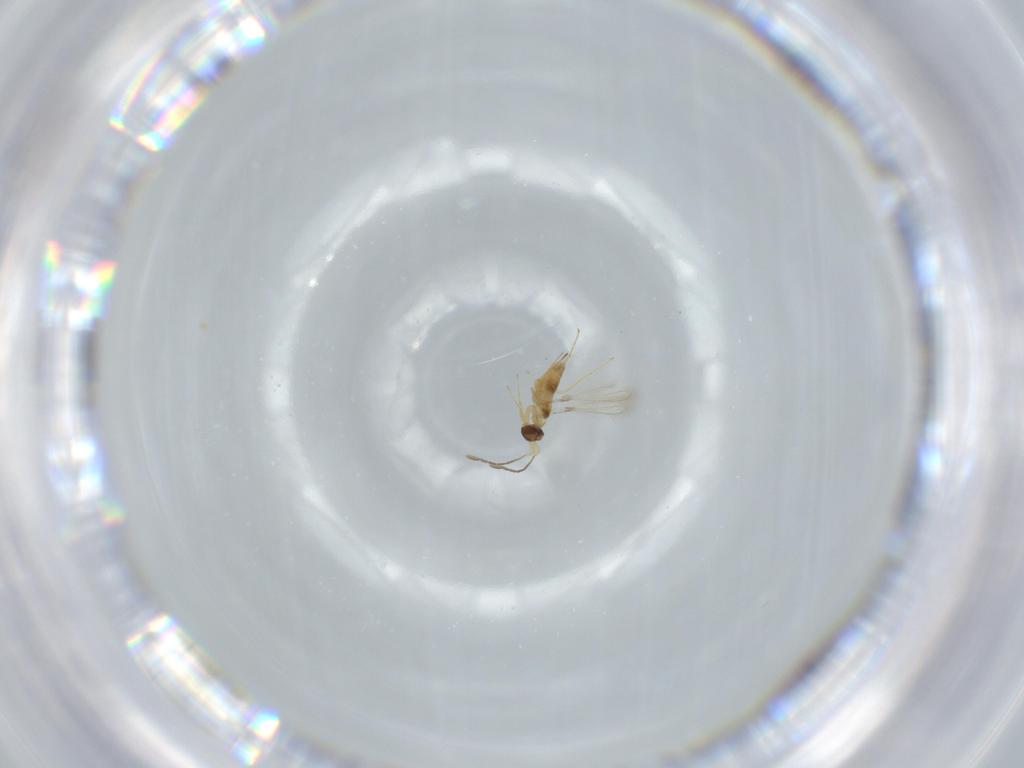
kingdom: Animalia
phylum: Arthropoda
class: Insecta
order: Hymenoptera
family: Mymaridae
